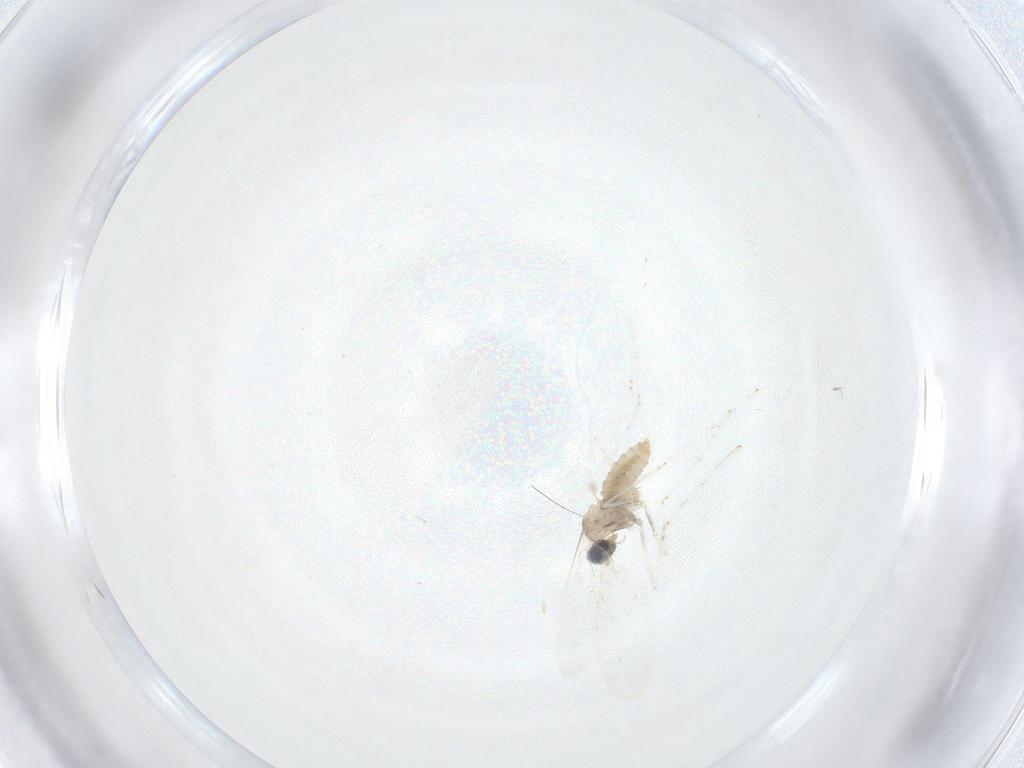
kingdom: Animalia
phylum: Arthropoda
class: Insecta
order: Diptera
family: Cecidomyiidae
